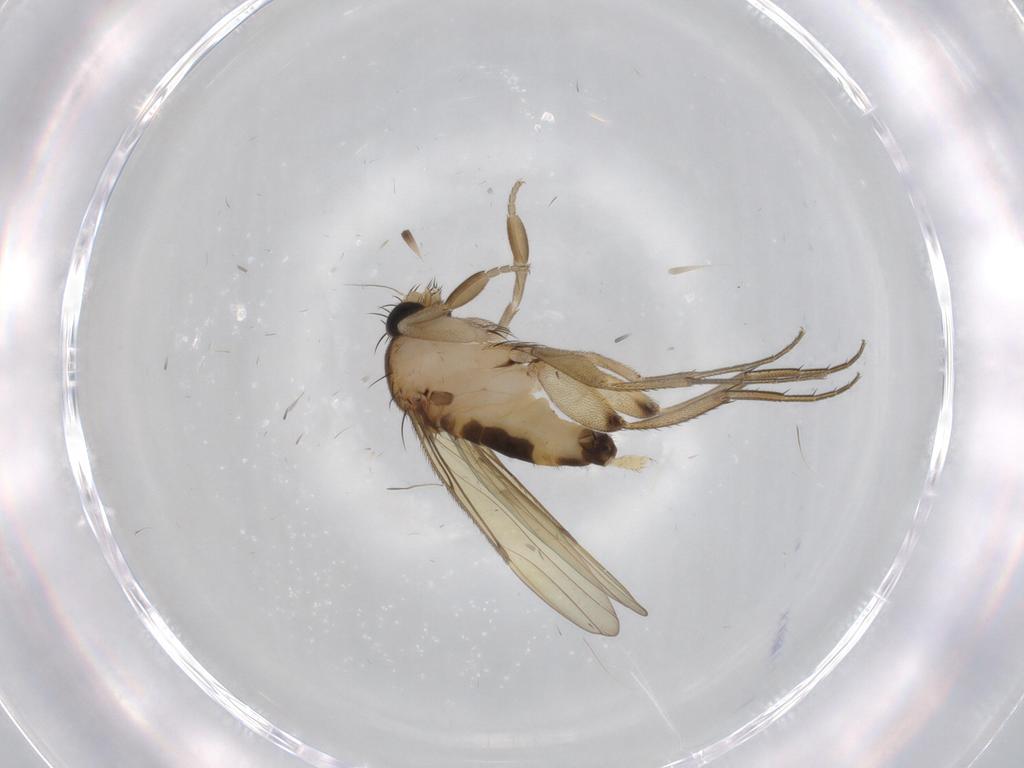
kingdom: Animalia
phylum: Arthropoda
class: Insecta
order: Diptera
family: Phoridae
